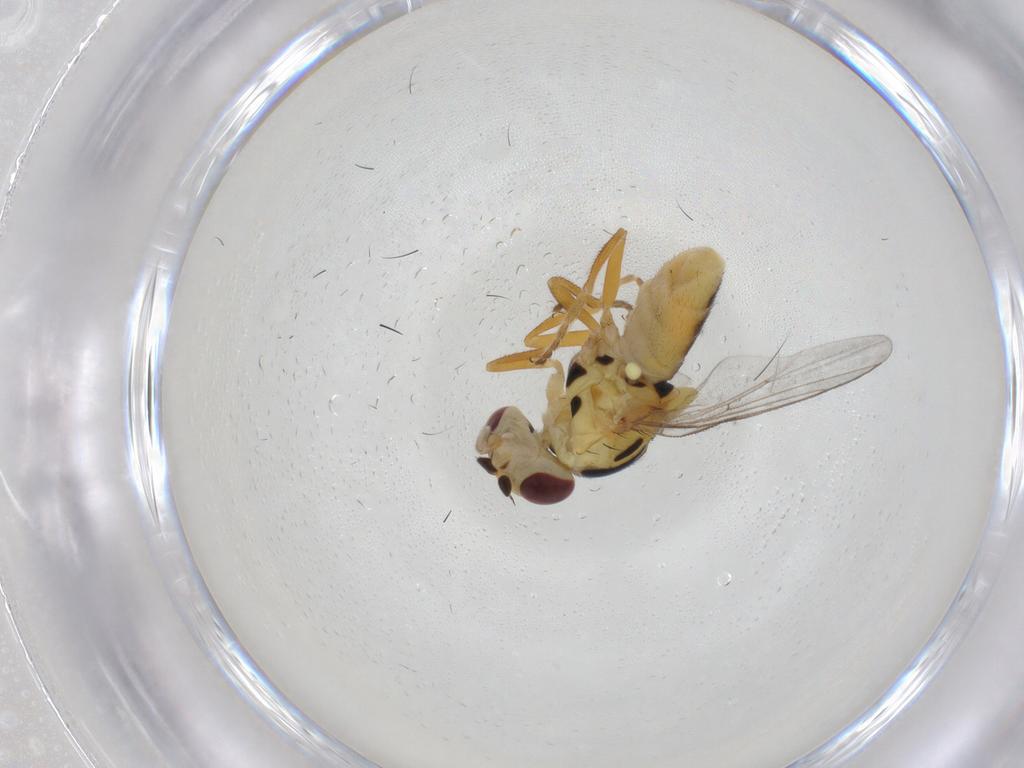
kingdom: Animalia
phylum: Arthropoda
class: Insecta
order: Diptera
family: Chloropidae
